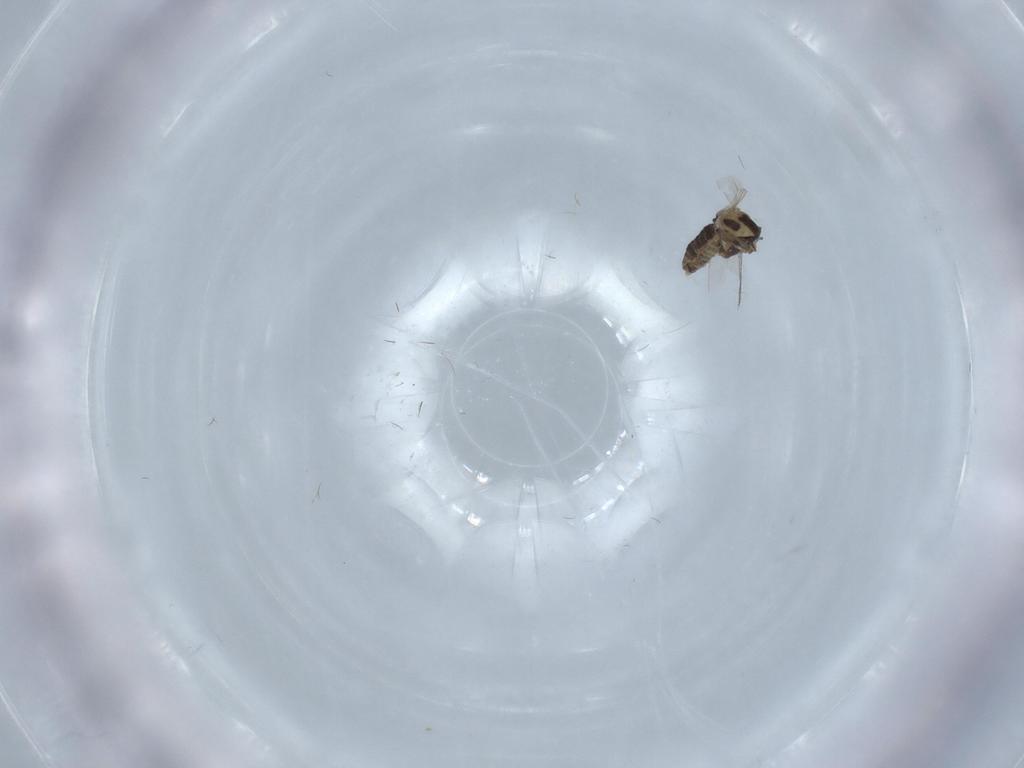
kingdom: Animalia
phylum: Arthropoda
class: Insecta
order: Diptera
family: Chironomidae
